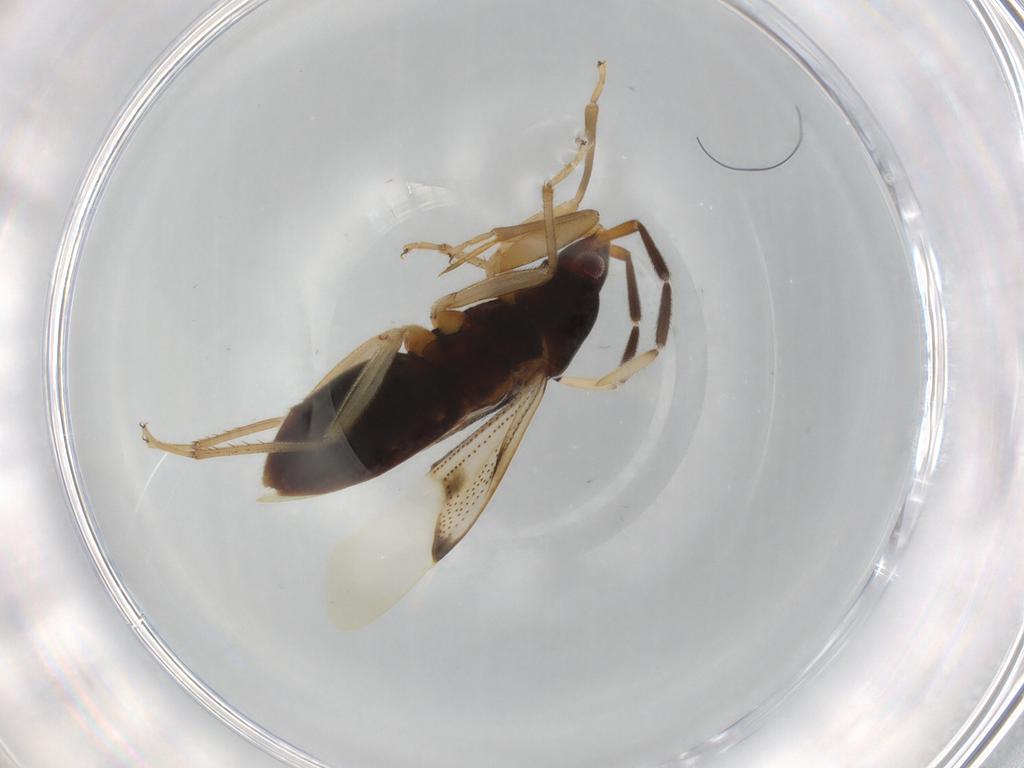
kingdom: Animalia
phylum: Arthropoda
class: Insecta
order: Hemiptera
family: Rhyparochromidae
